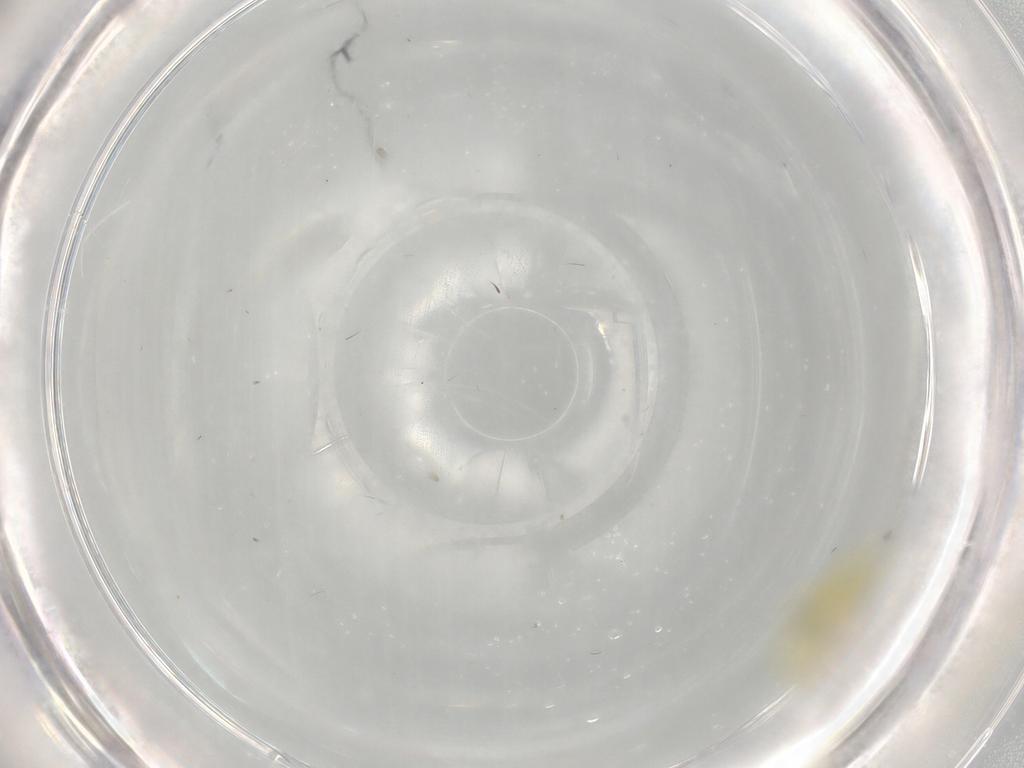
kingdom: Animalia
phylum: Arthropoda
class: Insecta
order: Hemiptera
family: Cicadellidae
